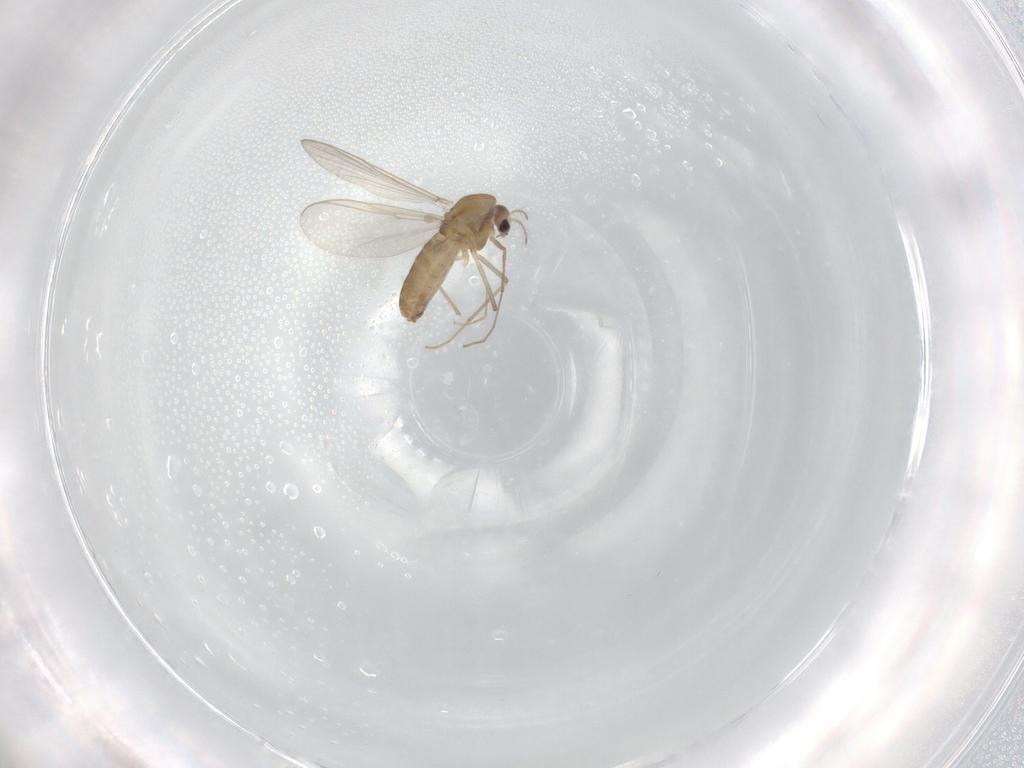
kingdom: Animalia
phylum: Arthropoda
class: Insecta
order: Diptera
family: Chironomidae
